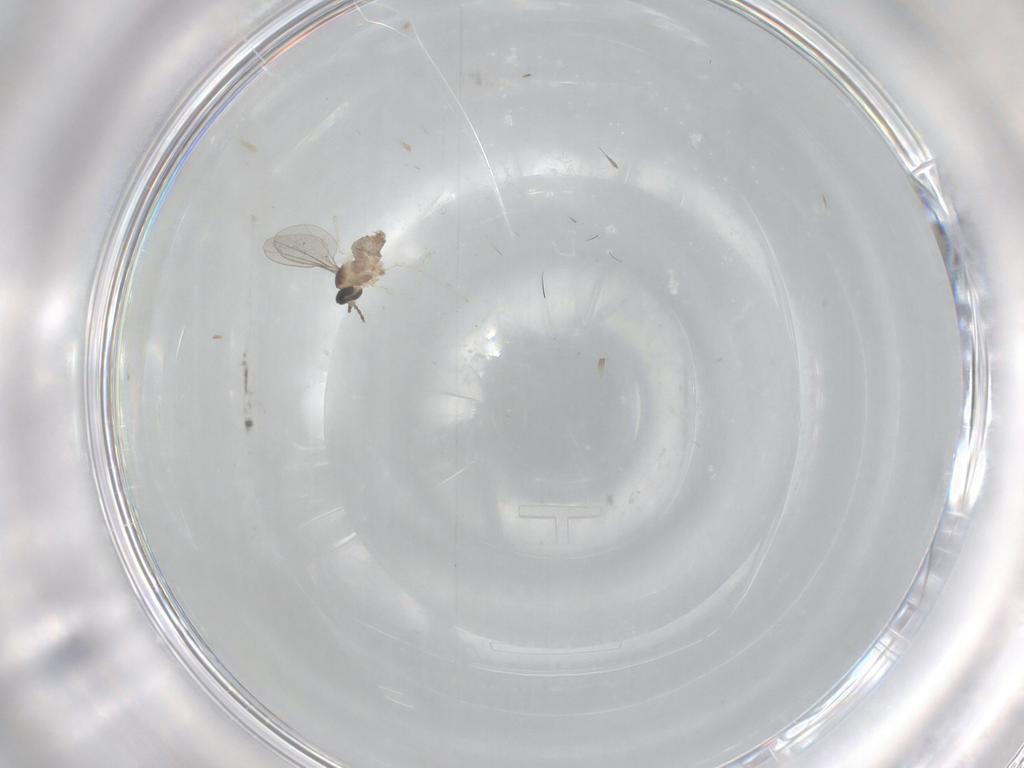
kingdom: Animalia
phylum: Arthropoda
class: Insecta
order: Diptera
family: Cecidomyiidae
